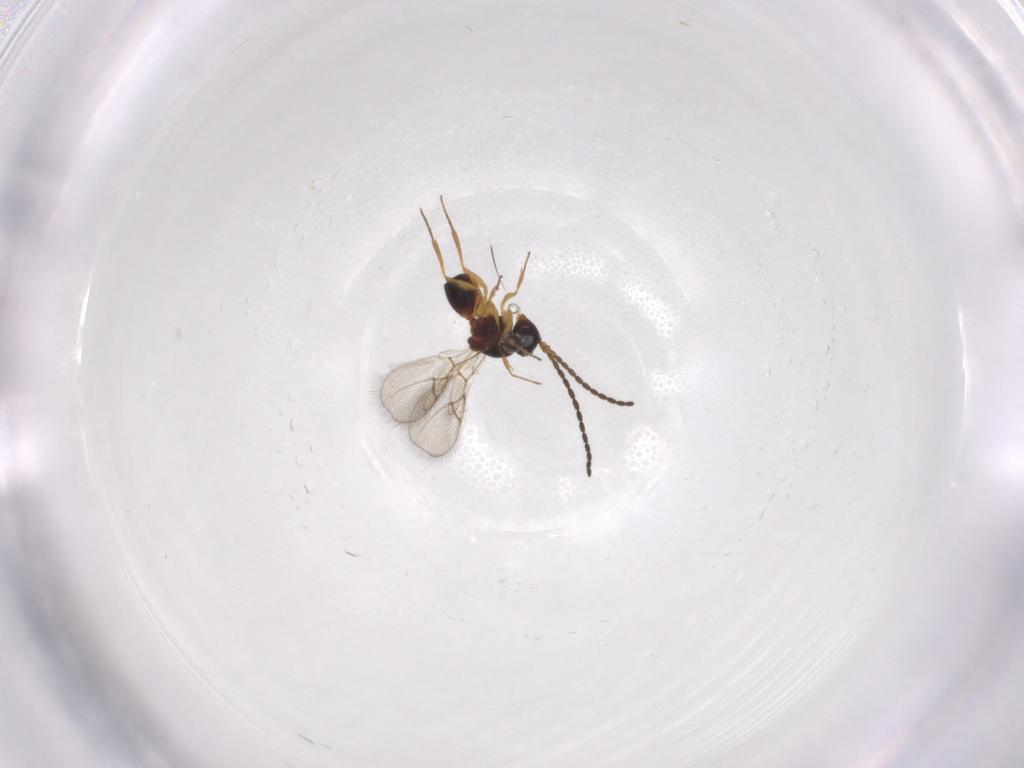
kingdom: Animalia
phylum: Arthropoda
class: Insecta
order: Hymenoptera
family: Figitidae
